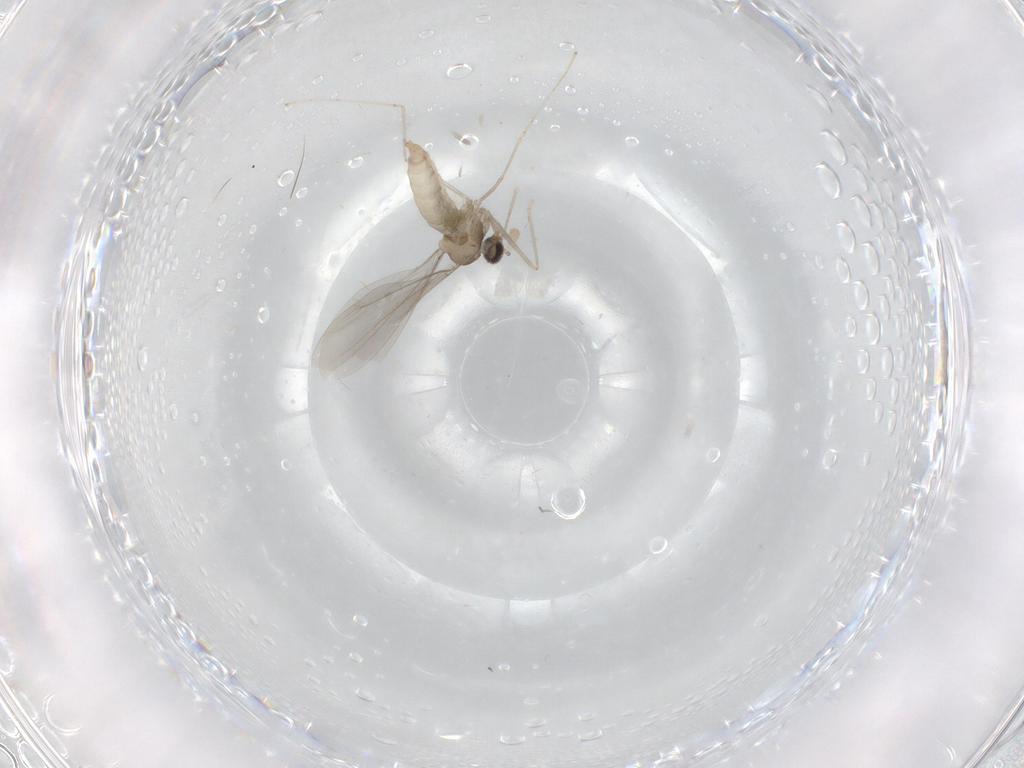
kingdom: Animalia
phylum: Arthropoda
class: Insecta
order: Diptera
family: Cecidomyiidae
